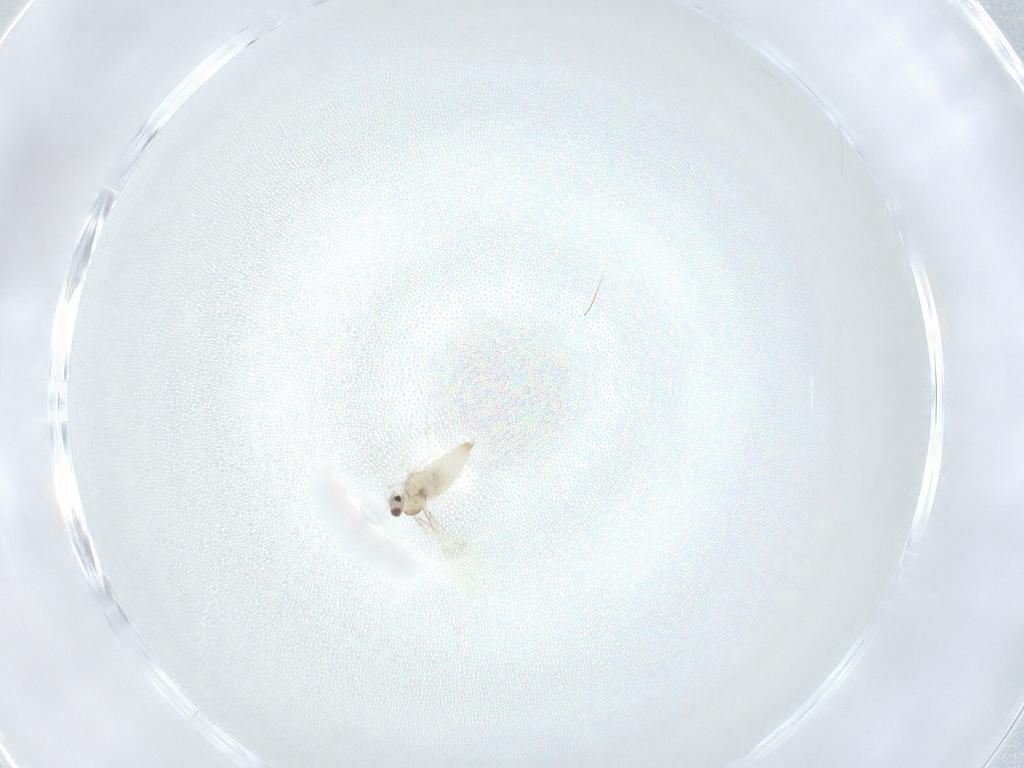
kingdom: Animalia
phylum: Arthropoda
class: Insecta
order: Diptera
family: Cecidomyiidae
